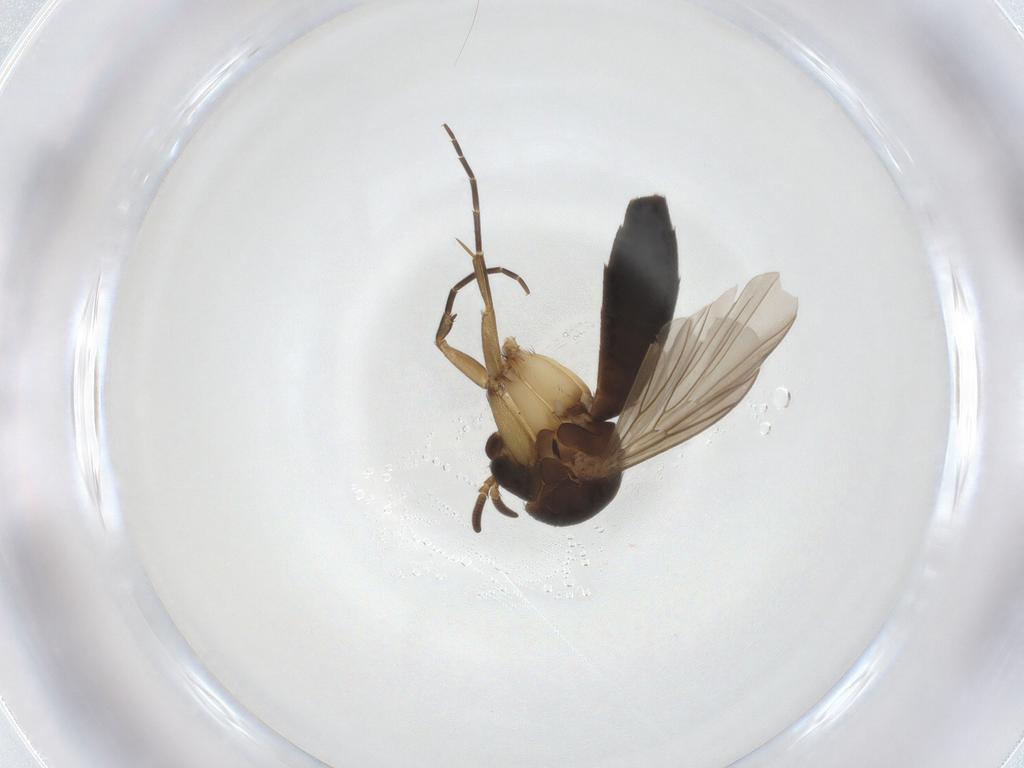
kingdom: Animalia
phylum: Arthropoda
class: Insecta
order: Diptera
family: Mycetophilidae
